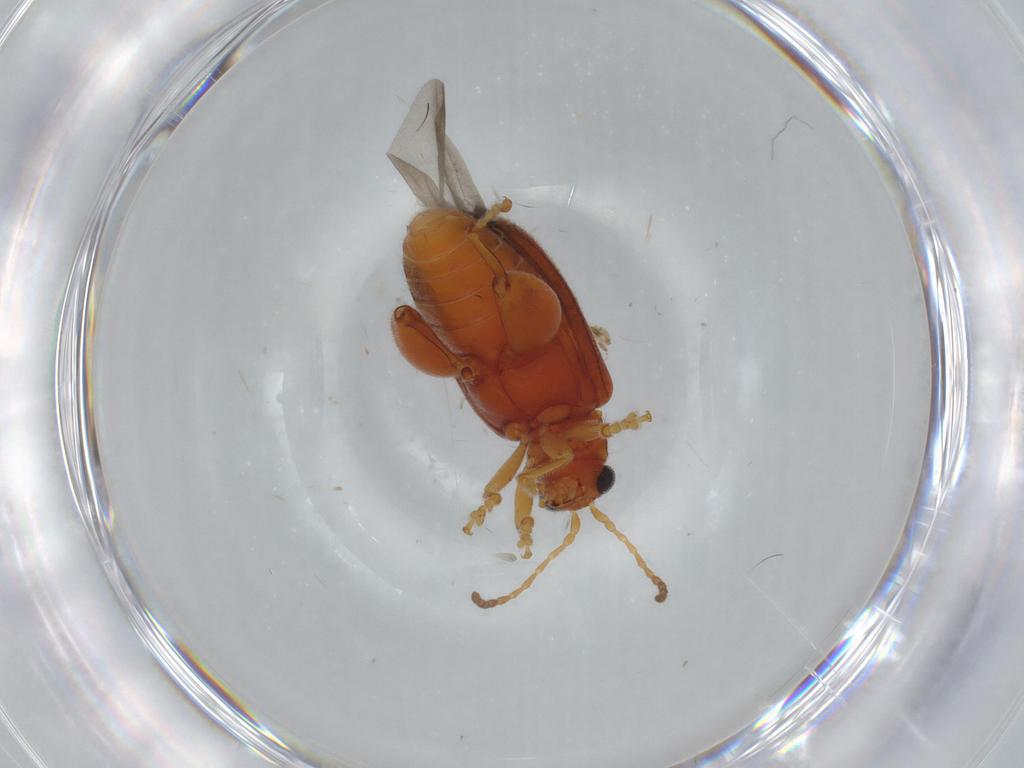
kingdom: Animalia
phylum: Arthropoda
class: Insecta
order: Coleoptera
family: Chrysomelidae
